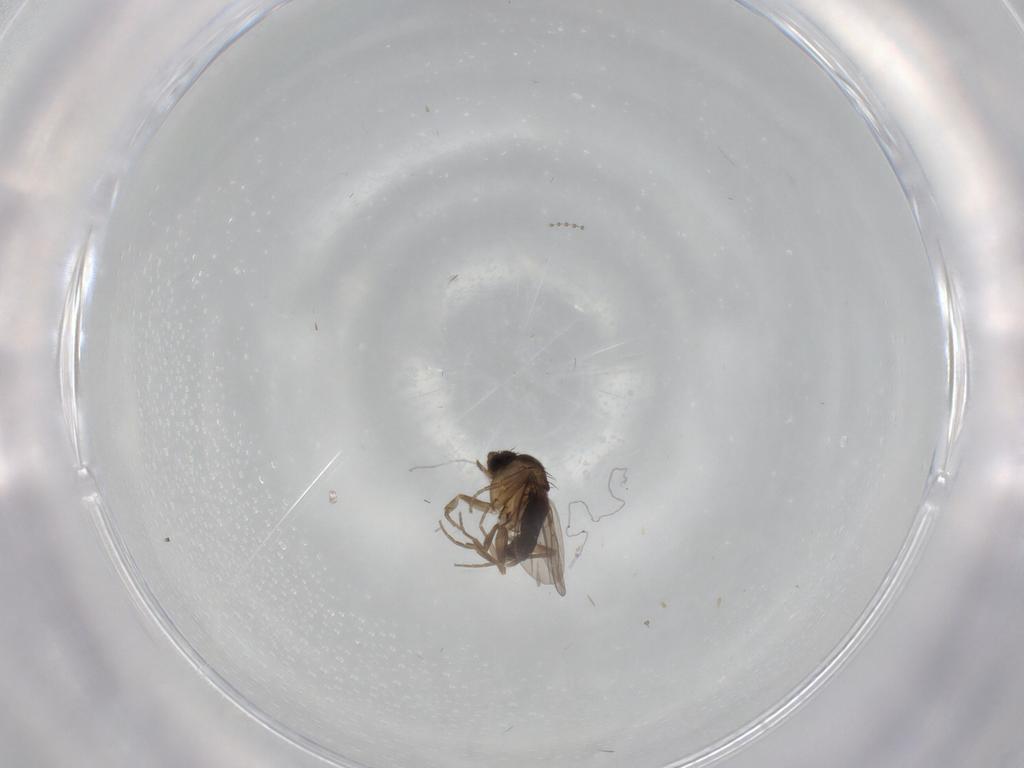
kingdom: Animalia
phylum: Arthropoda
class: Insecta
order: Diptera
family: Phoridae
